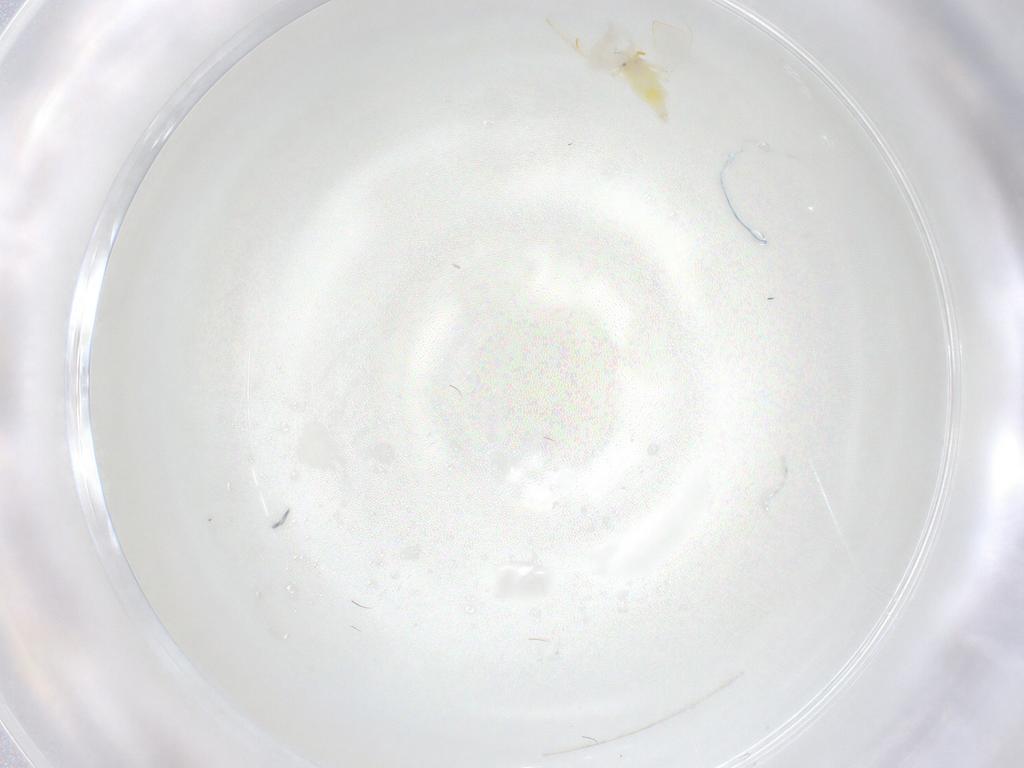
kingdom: Animalia
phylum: Arthropoda
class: Insecta
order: Hemiptera
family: Aleyrodidae
